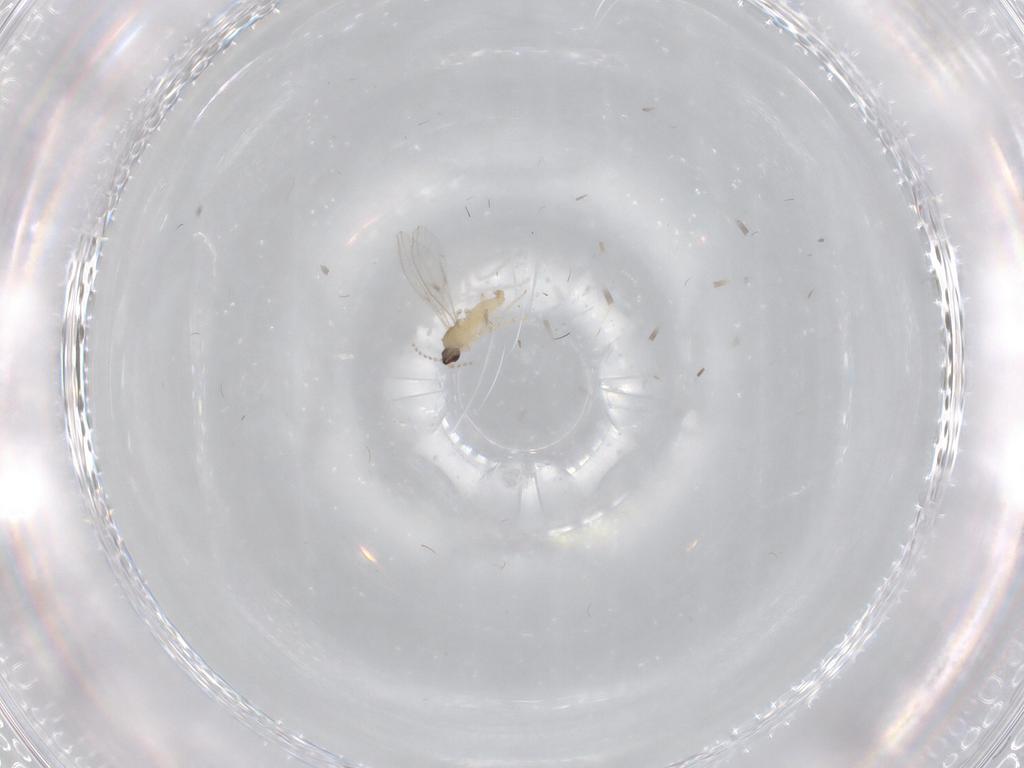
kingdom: Animalia
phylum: Arthropoda
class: Insecta
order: Diptera
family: Cecidomyiidae
